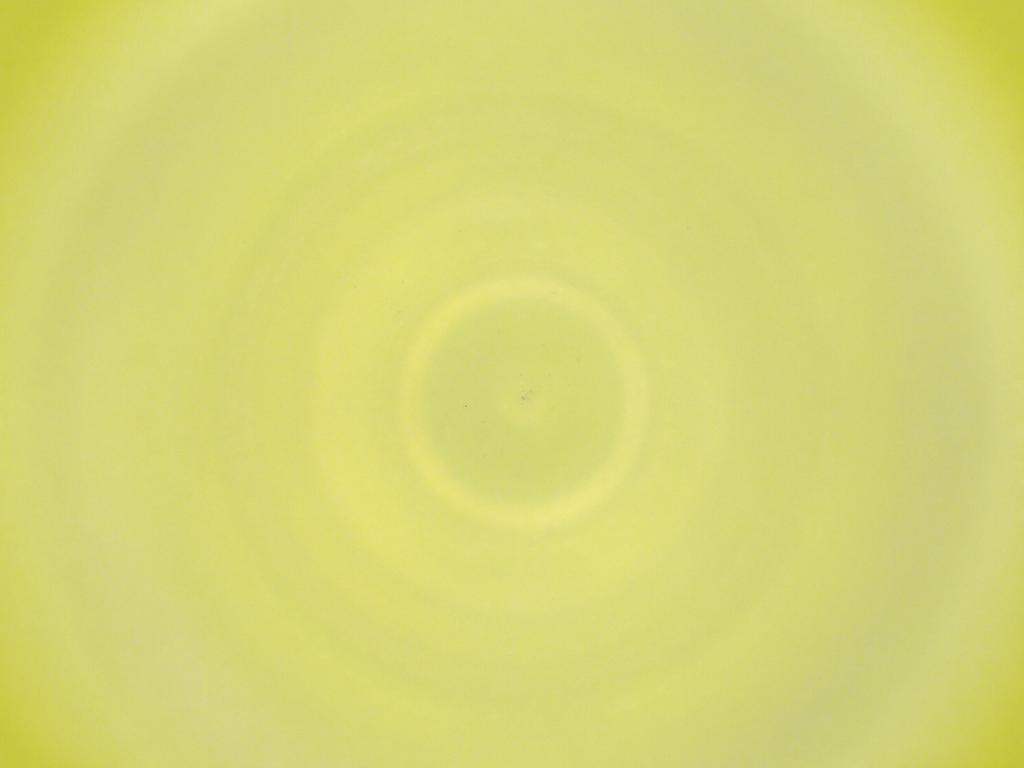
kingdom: Animalia
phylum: Arthropoda
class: Insecta
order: Diptera
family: Cecidomyiidae
